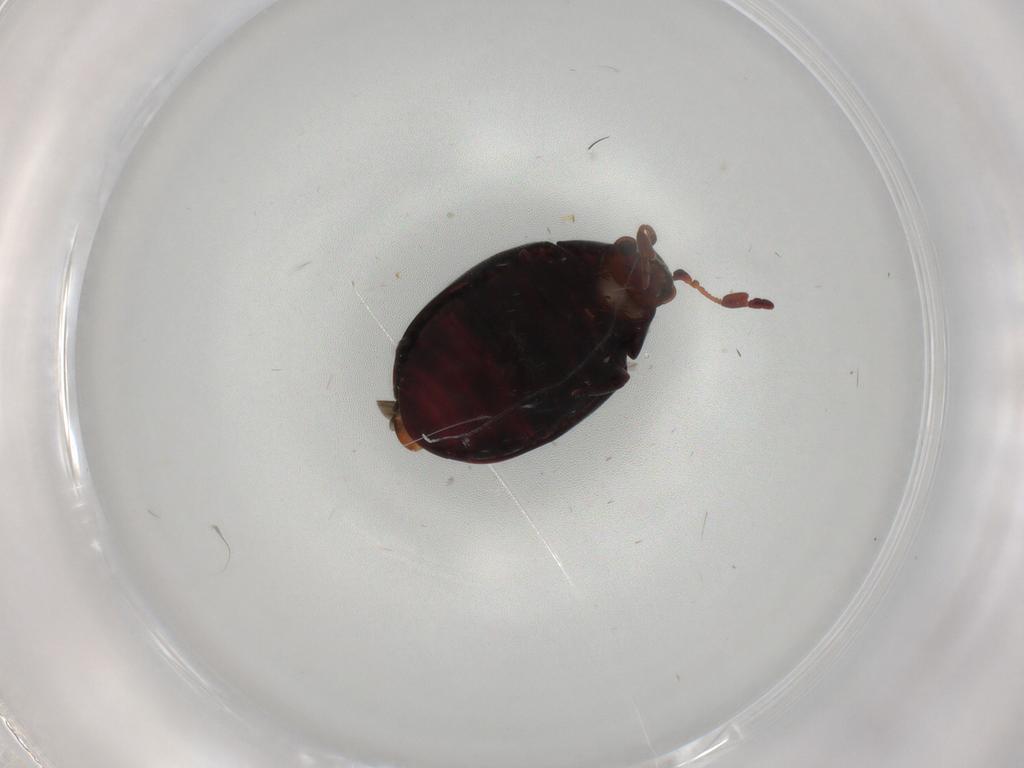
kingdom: Animalia
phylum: Arthropoda
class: Insecta
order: Coleoptera
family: Ptinidae
